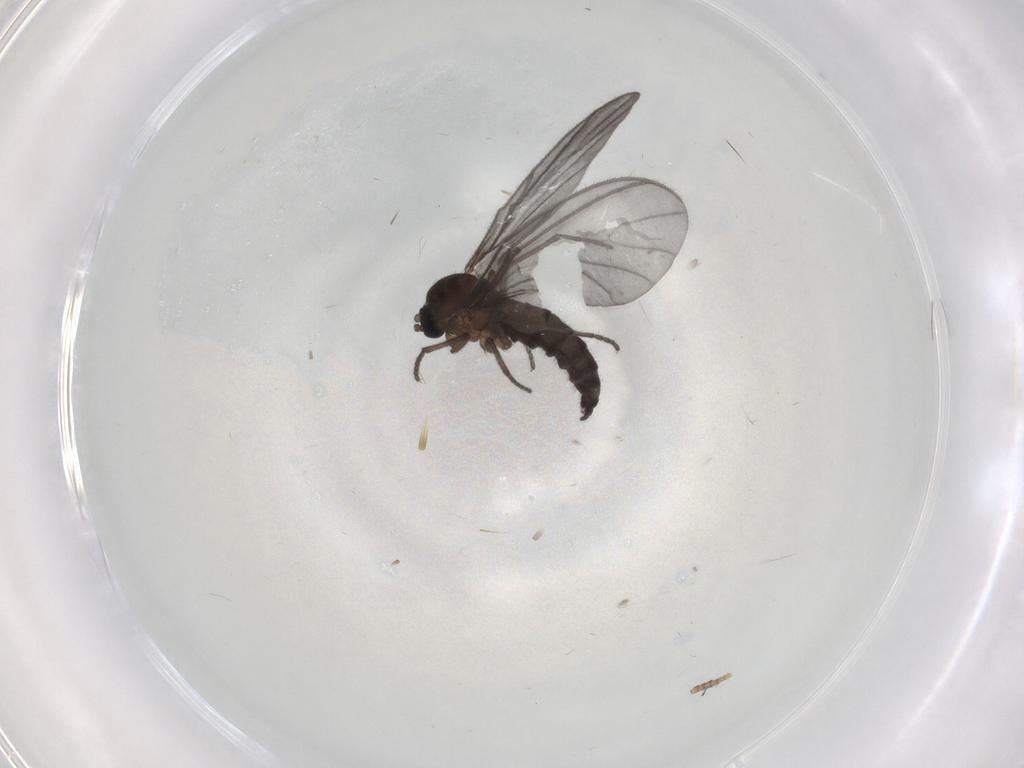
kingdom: Animalia
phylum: Arthropoda
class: Insecta
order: Diptera
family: Sciaridae
